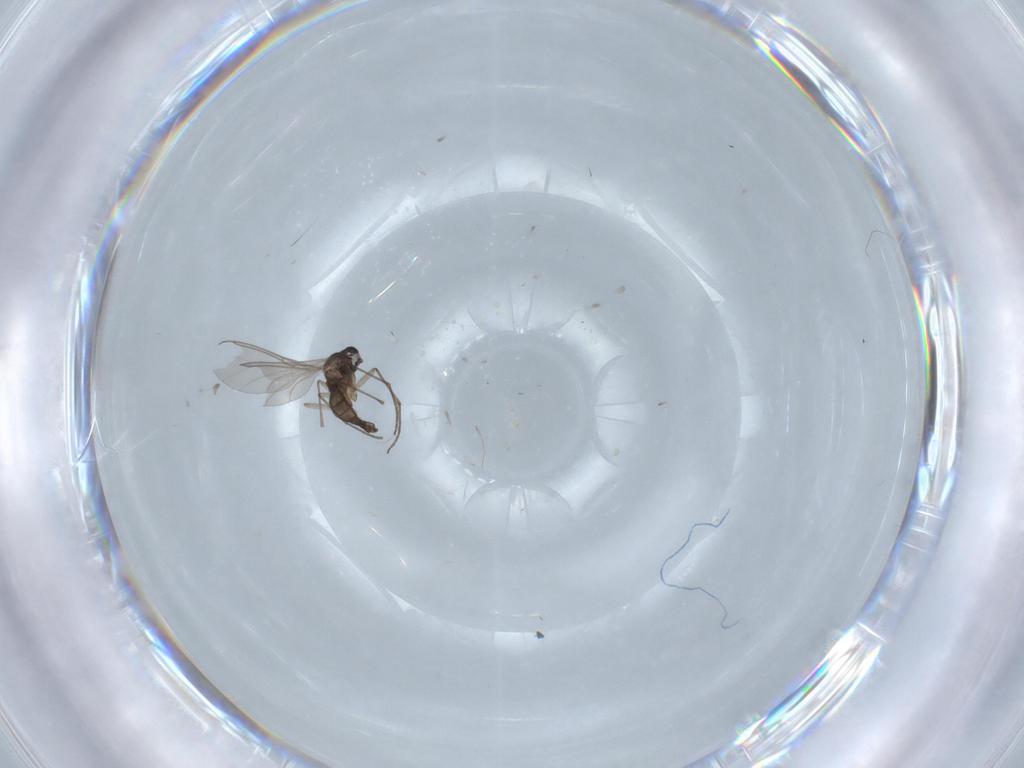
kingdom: Animalia
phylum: Arthropoda
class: Insecta
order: Diptera
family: Sciaridae
